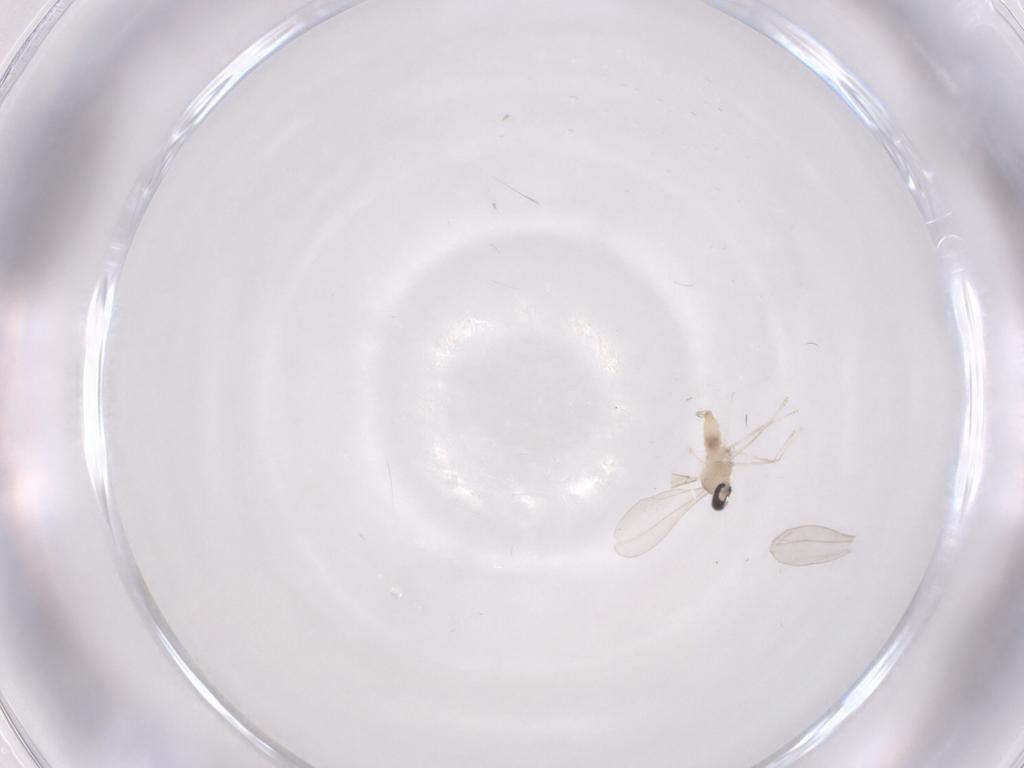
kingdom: Animalia
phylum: Arthropoda
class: Insecta
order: Diptera
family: Cecidomyiidae
